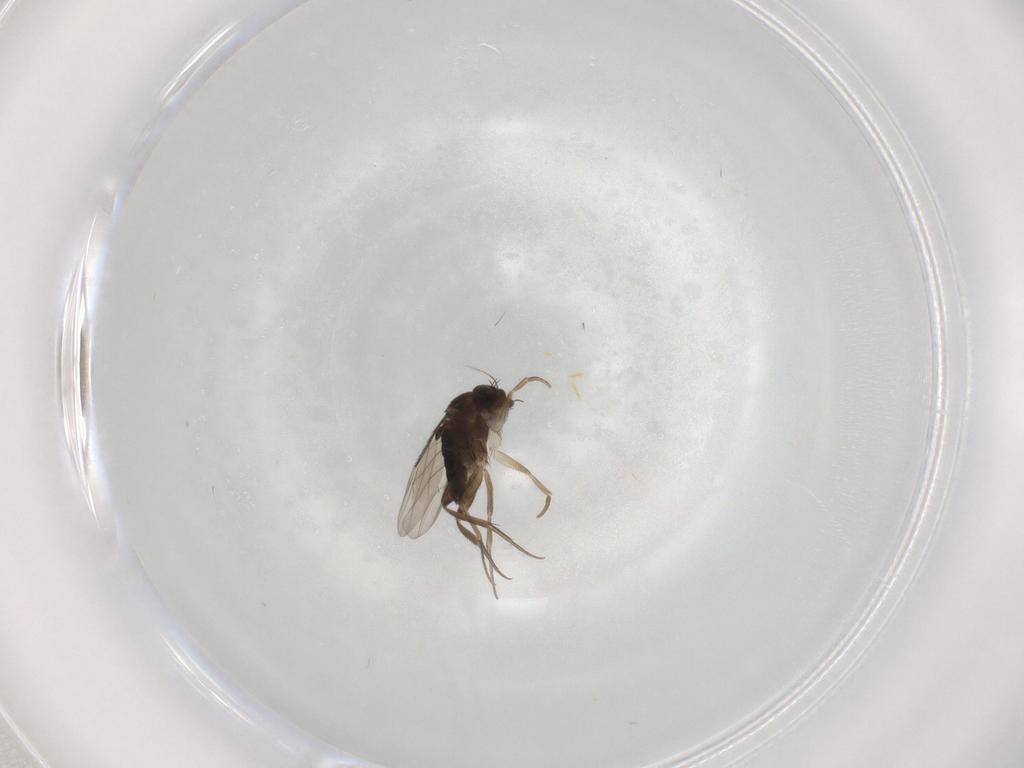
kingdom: Animalia
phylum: Arthropoda
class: Insecta
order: Diptera
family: Phoridae
